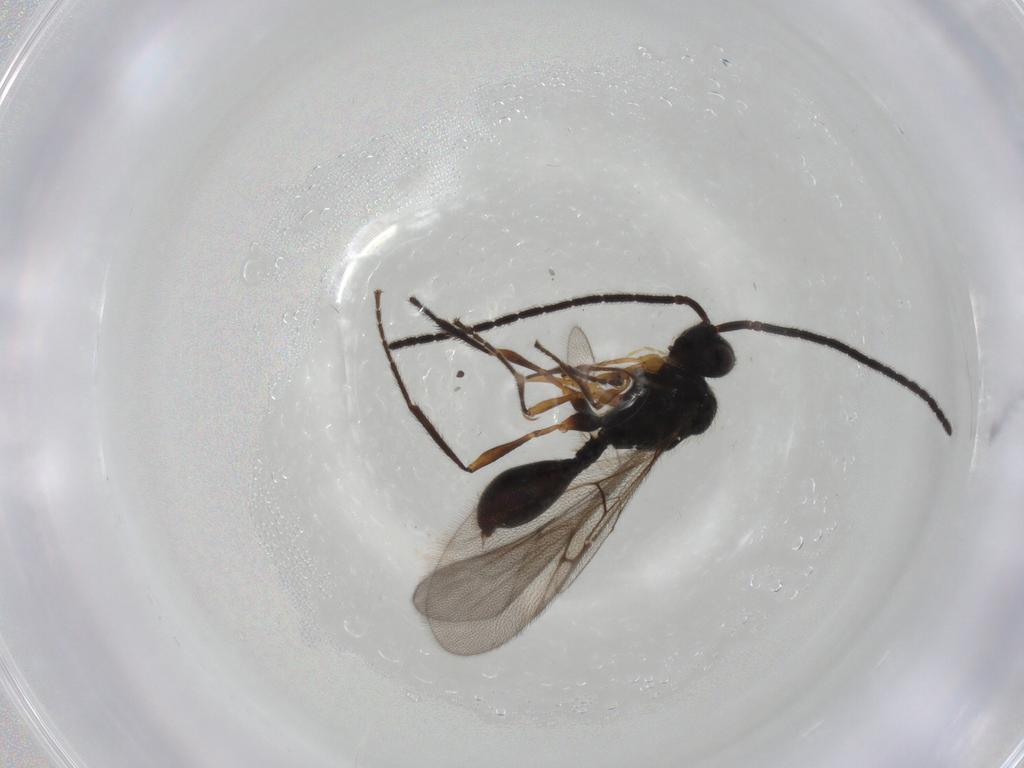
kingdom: Animalia
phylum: Arthropoda
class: Insecta
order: Hymenoptera
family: Diapriidae
